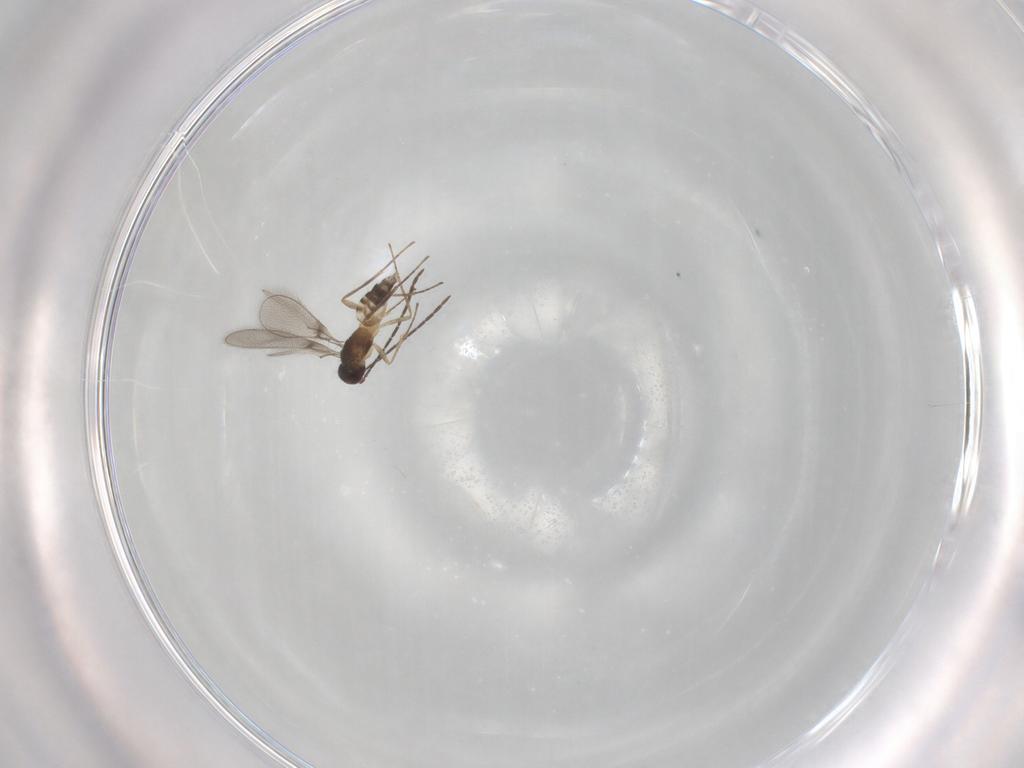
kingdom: Animalia
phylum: Arthropoda
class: Insecta
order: Hymenoptera
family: Mymaridae
